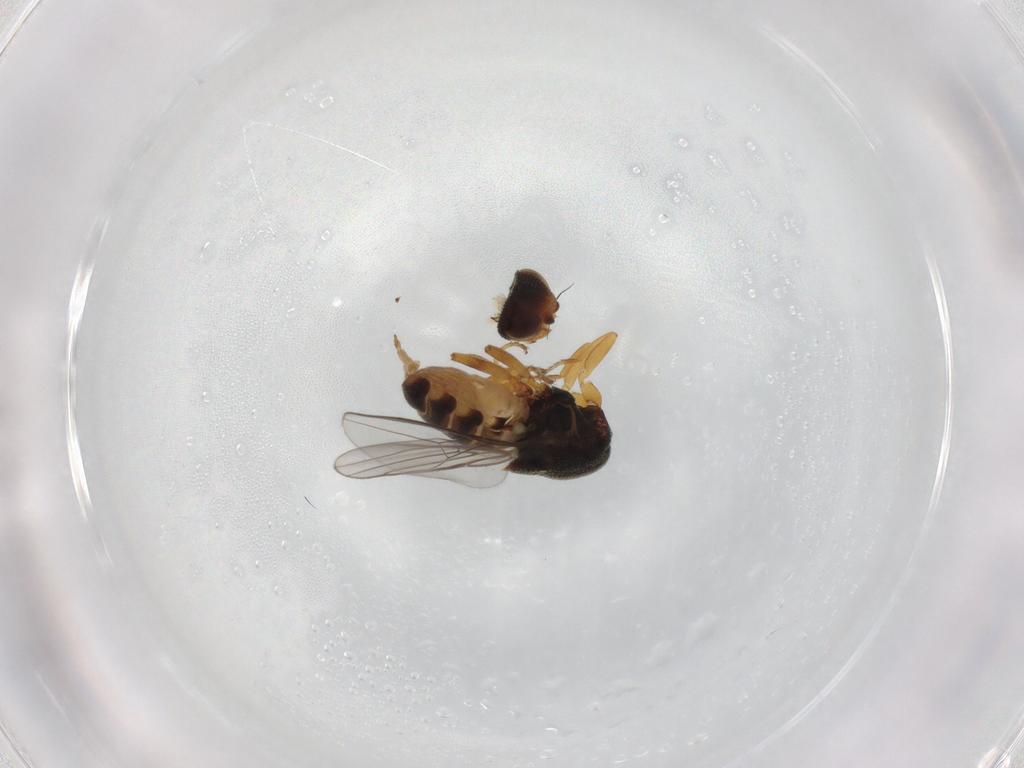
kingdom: Animalia
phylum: Arthropoda
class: Insecta
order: Diptera
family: Chloropidae
